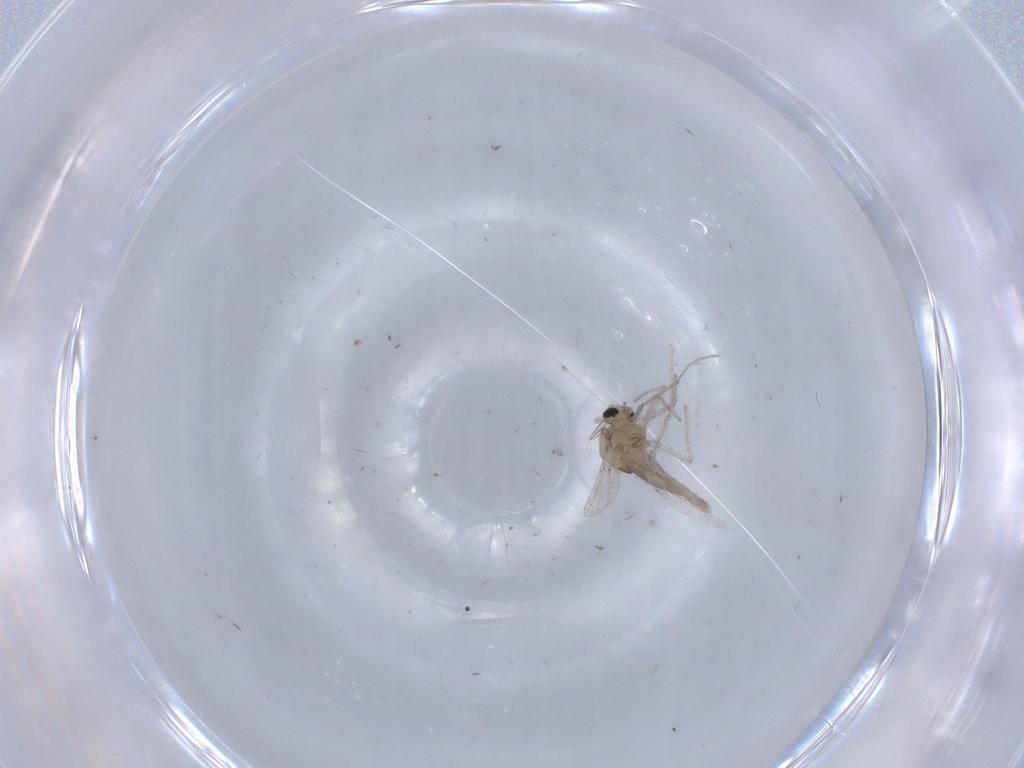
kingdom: Animalia
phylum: Arthropoda
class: Insecta
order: Diptera
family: Chironomidae
